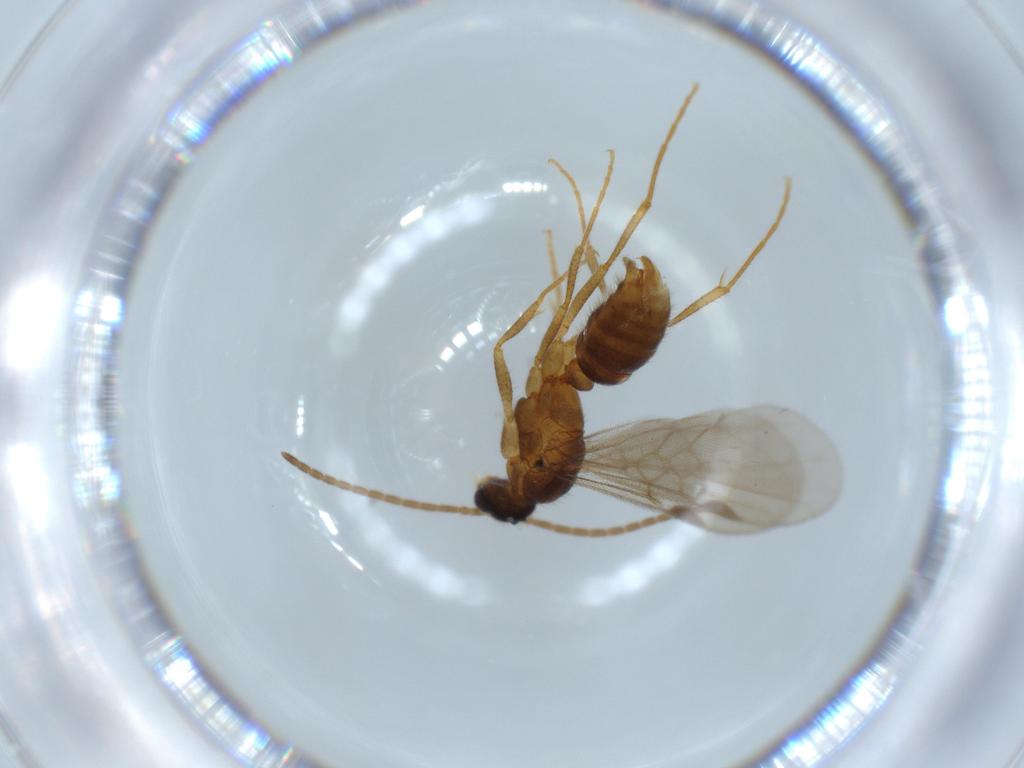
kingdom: Animalia
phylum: Arthropoda
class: Insecta
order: Hymenoptera
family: Formicidae
